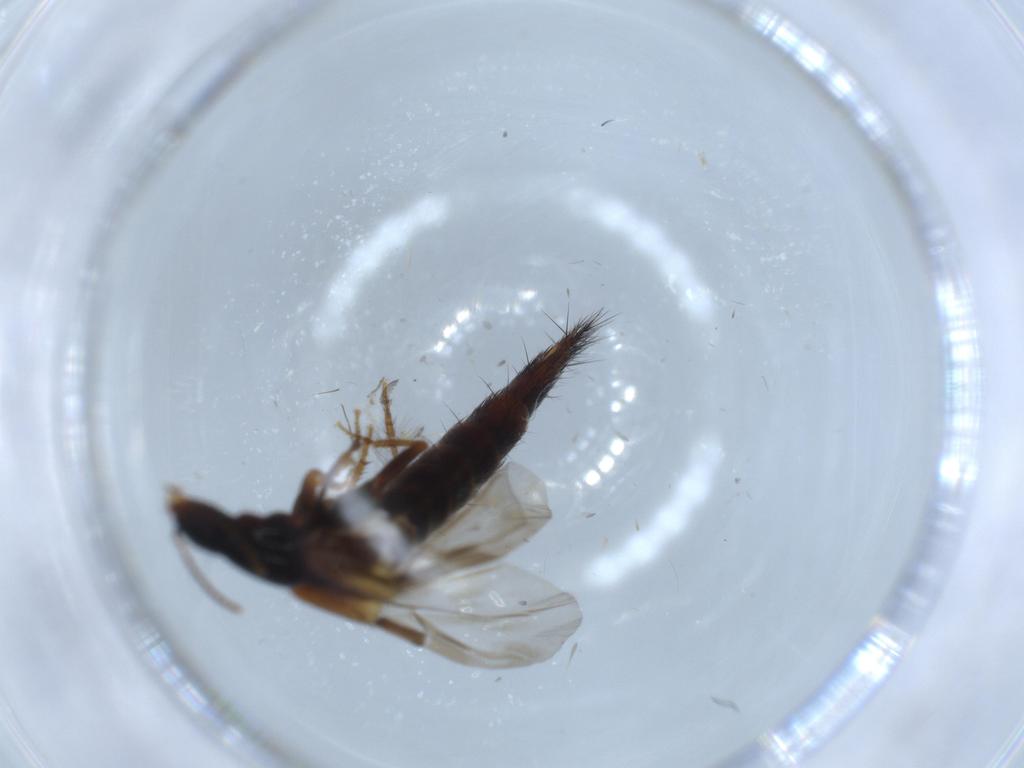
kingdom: Animalia
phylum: Arthropoda
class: Insecta
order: Coleoptera
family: Staphylinidae
